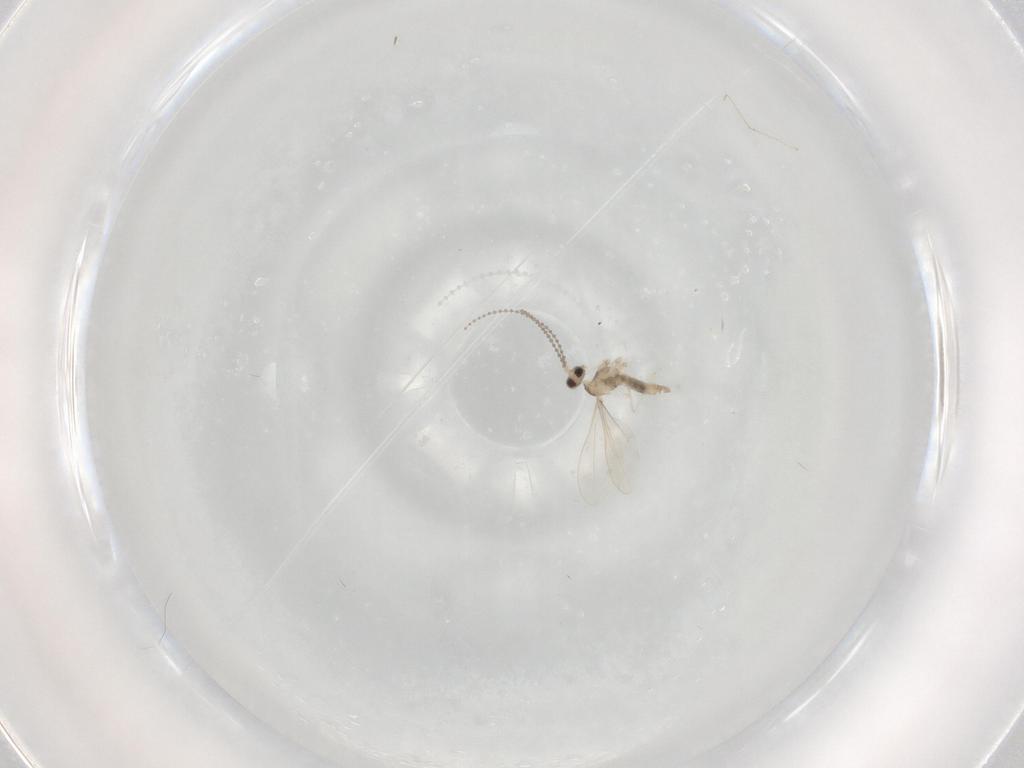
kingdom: Animalia
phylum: Arthropoda
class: Insecta
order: Diptera
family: Cecidomyiidae
